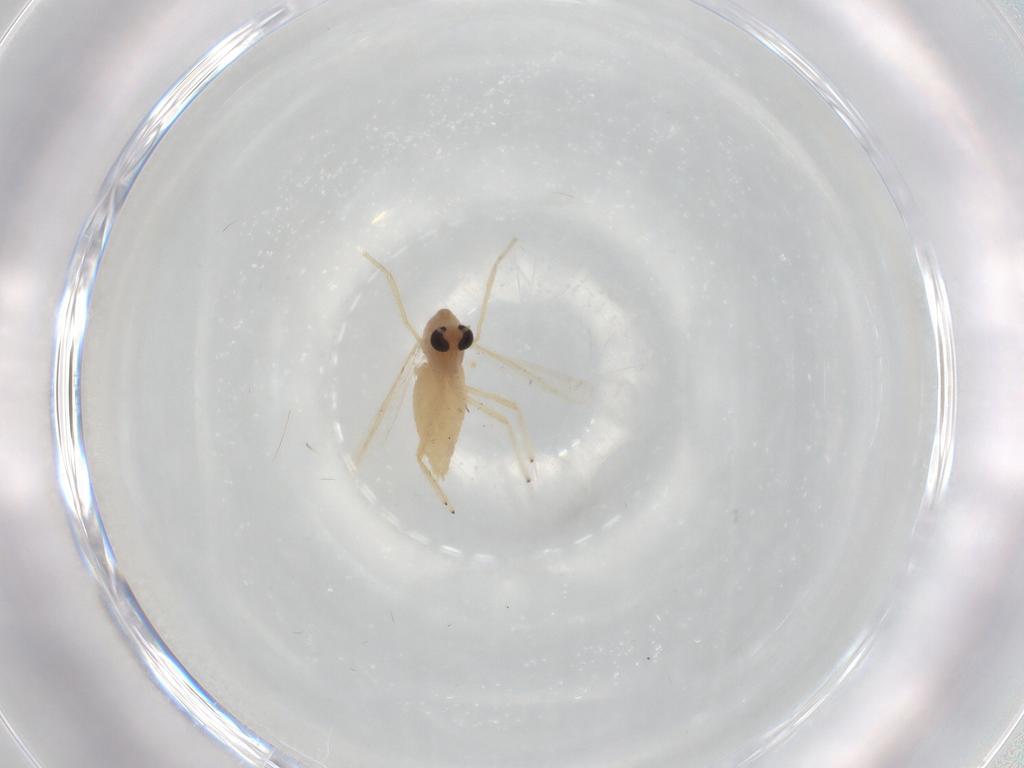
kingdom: Animalia
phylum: Arthropoda
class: Insecta
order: Diptera
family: Chironomidae
